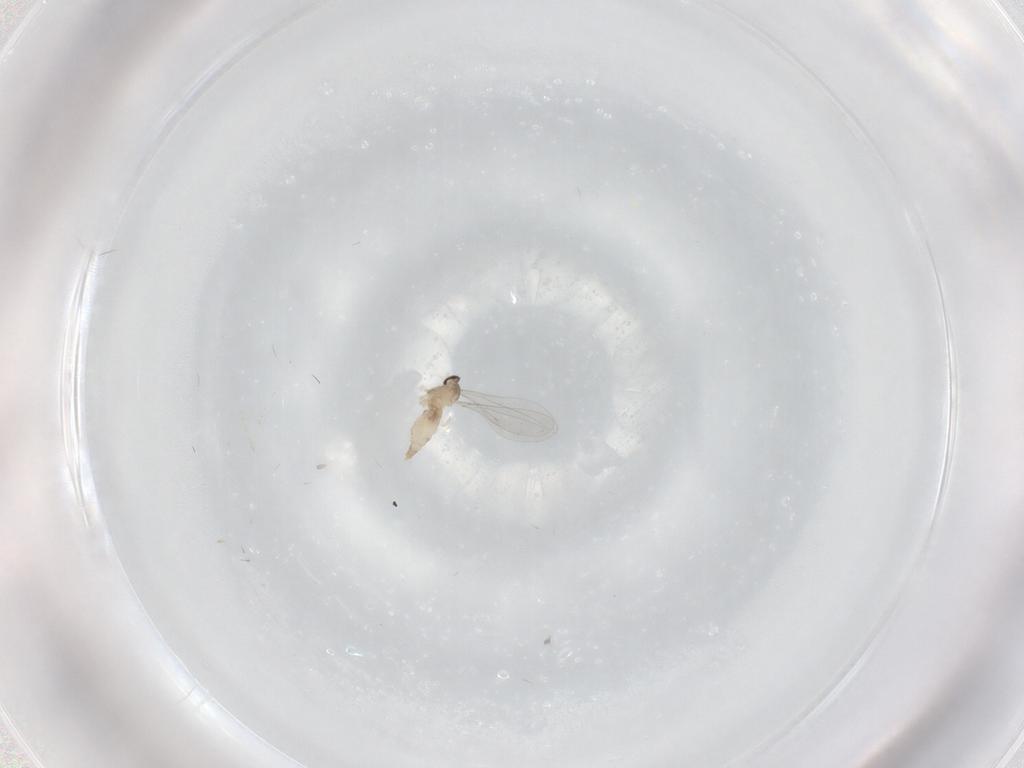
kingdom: Animalia
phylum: Arthropoda
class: Insecta
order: Diptera
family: Cecidomyiidae
